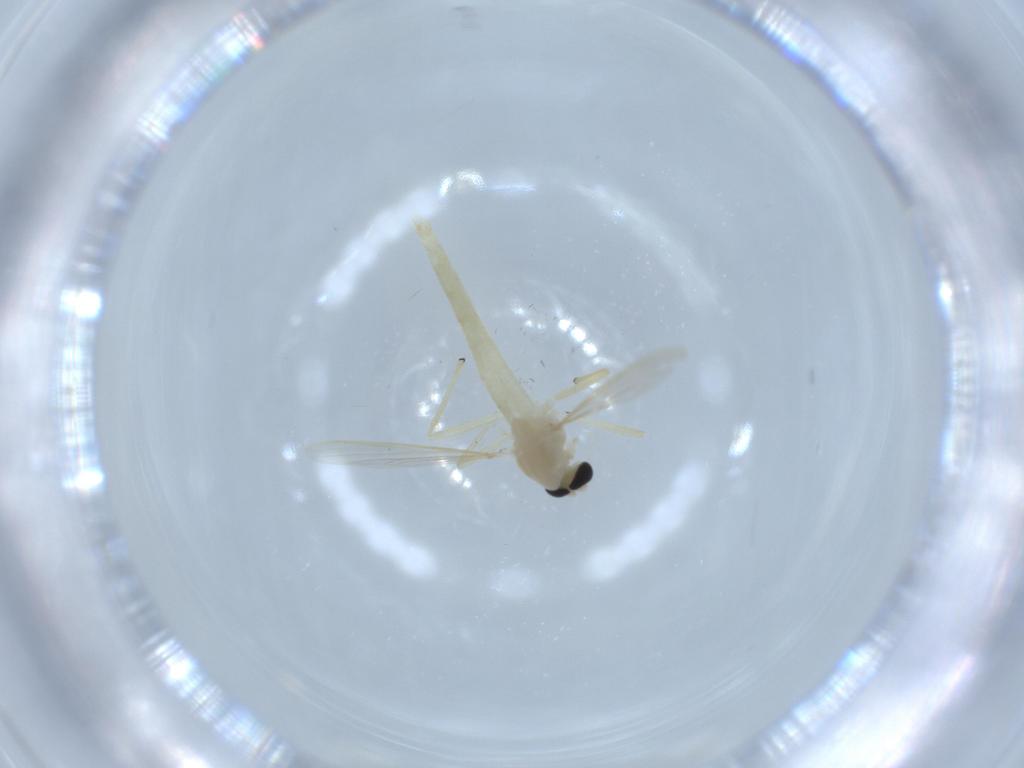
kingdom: Animalia
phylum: Arthropoda
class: Insecta
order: Diptera
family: Chironomidae
